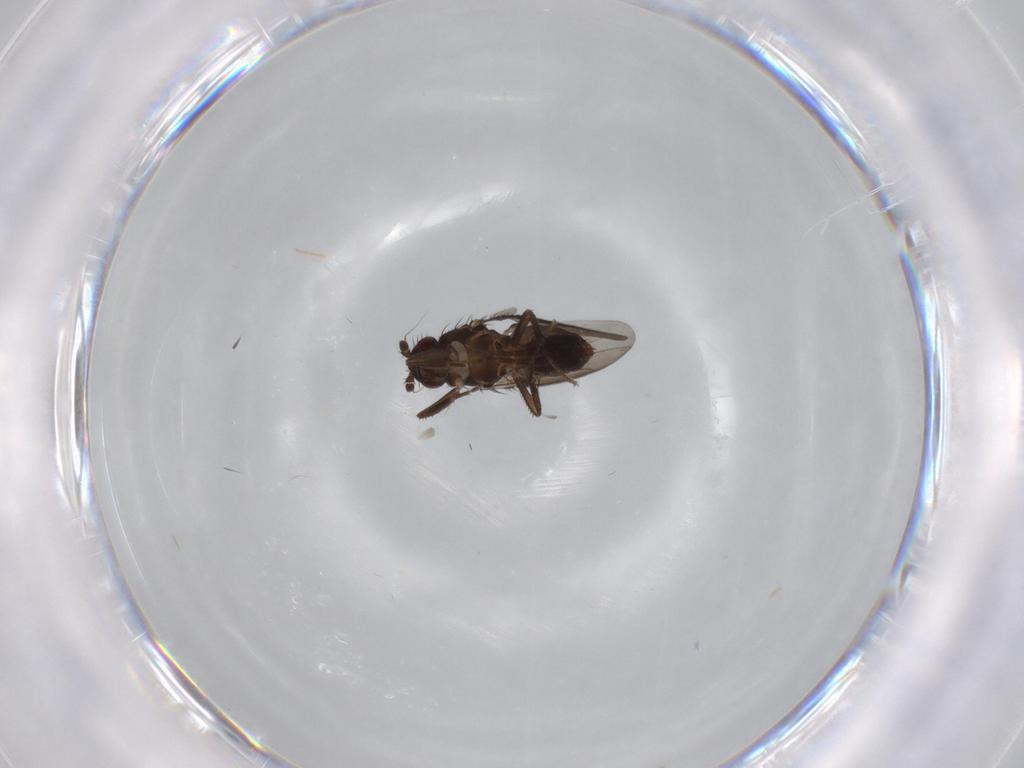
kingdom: Animalia
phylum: Arthropoda
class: Insecta
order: Diptera
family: Sphaeroceridae
